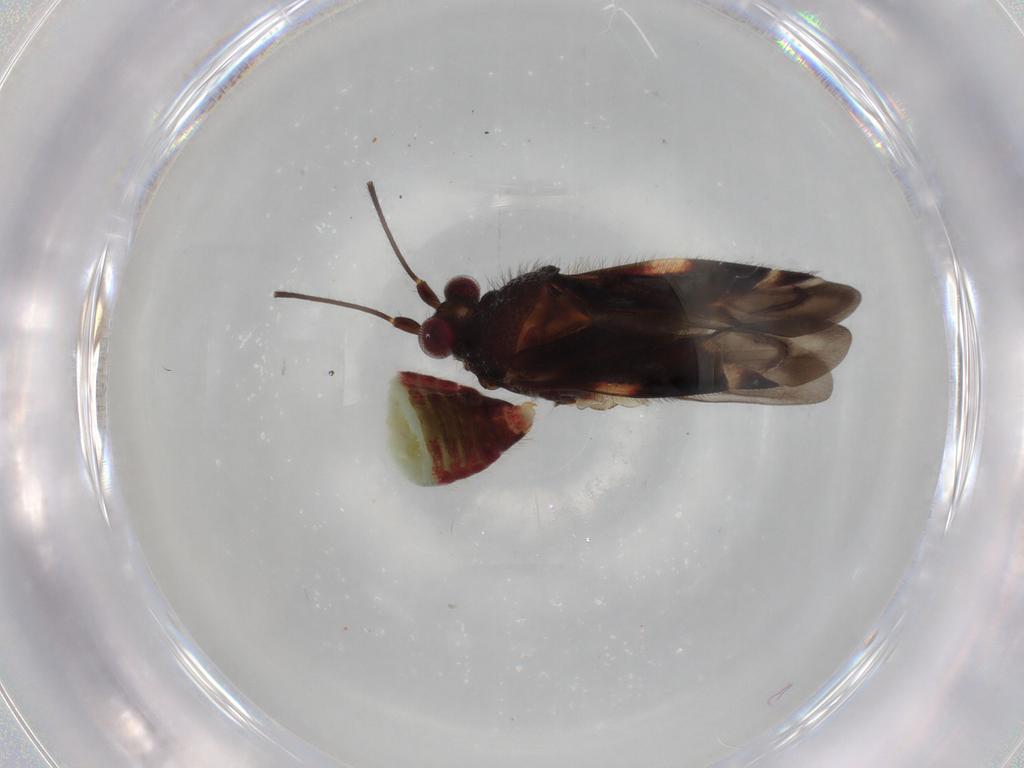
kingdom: Animalia
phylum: Arthropoda
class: Insecta
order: Hemiptera
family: Miridae
